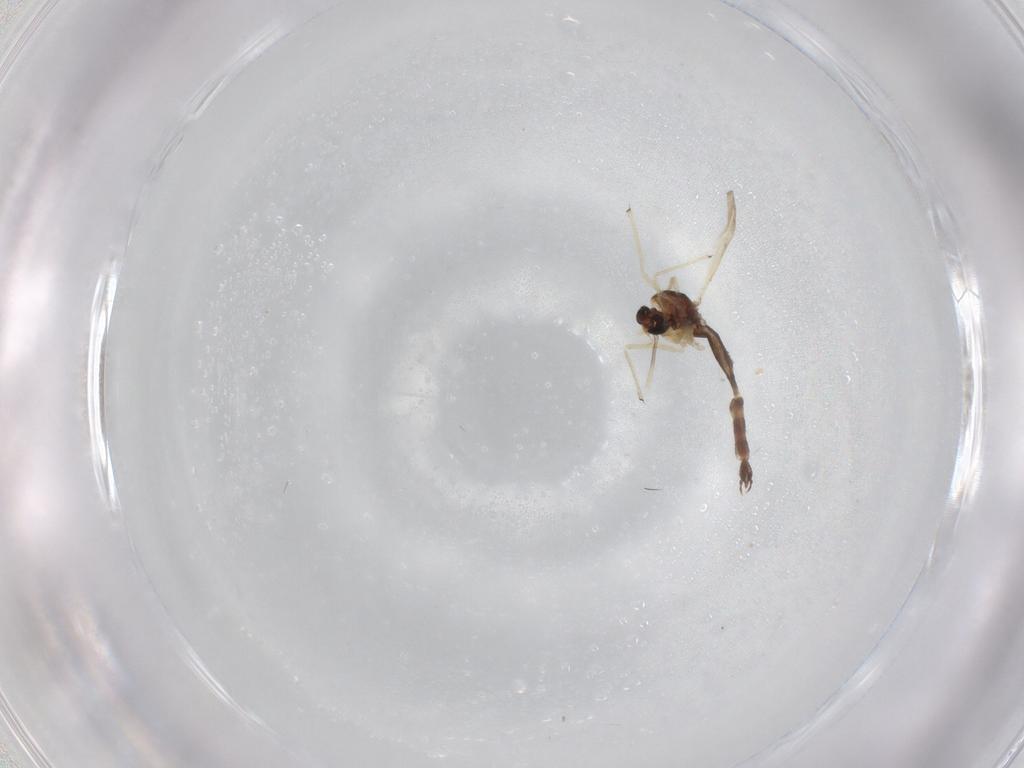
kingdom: Animalia
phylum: Arthropoda
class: Insecta
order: Diptera
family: Chironomidae
